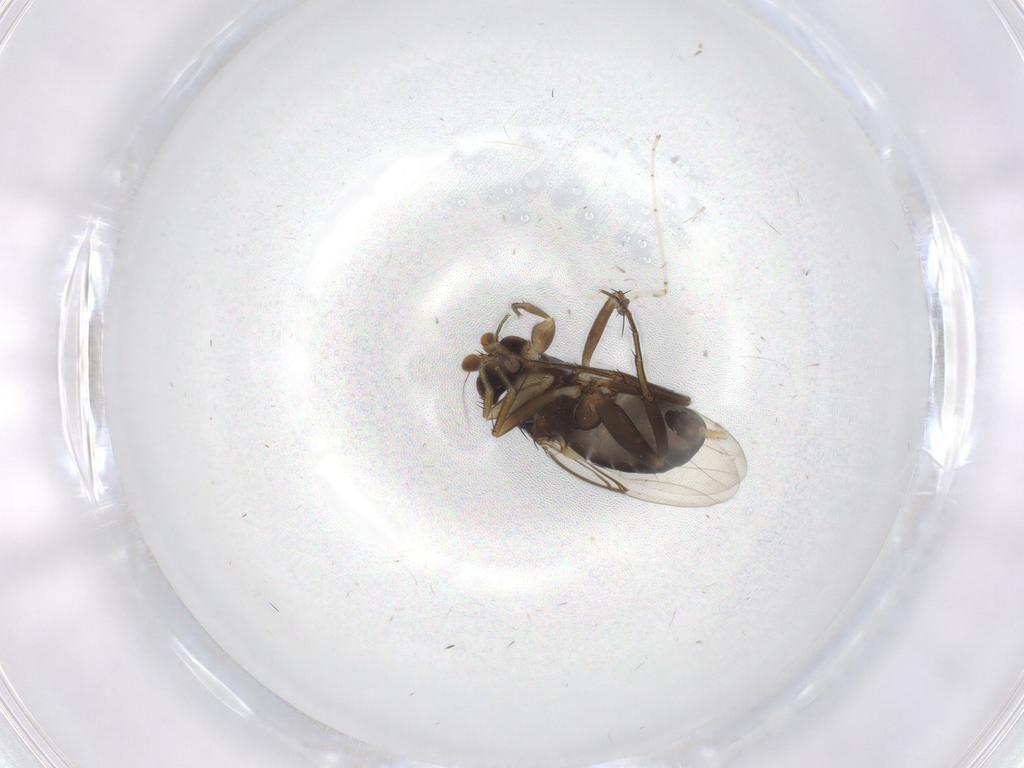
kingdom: Animalia
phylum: Arthropoda
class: Insecta
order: Diptera
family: Phoridae
